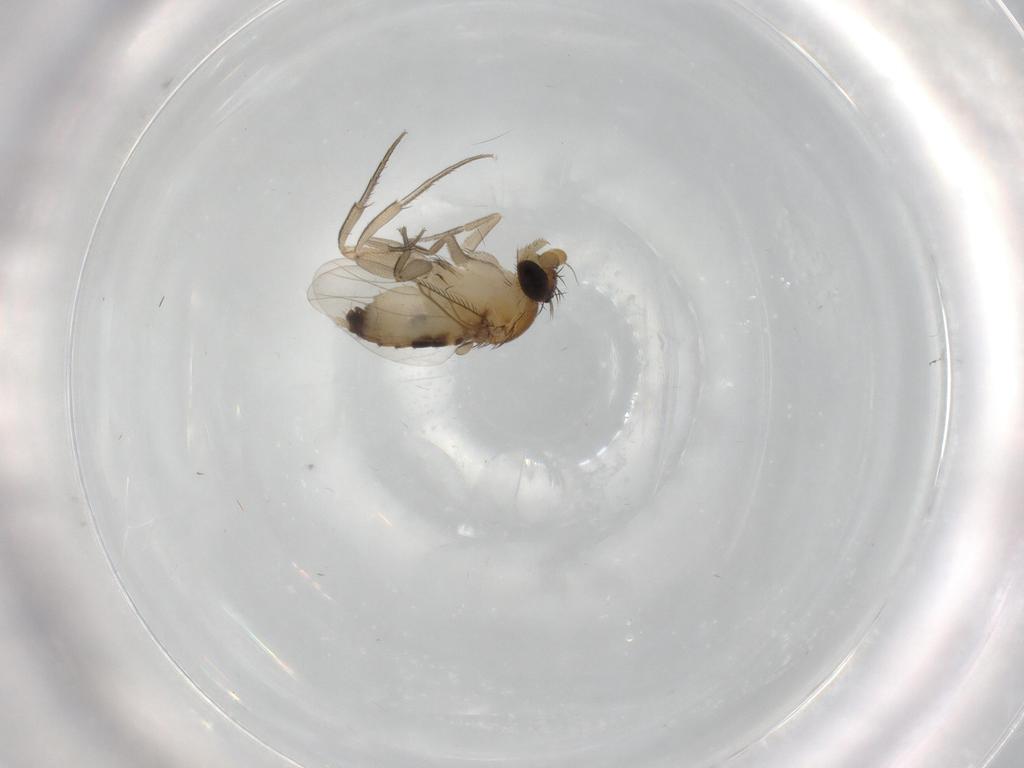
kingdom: Animalia
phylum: Arthropoda
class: Insecta
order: Diptera
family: Phoridae
